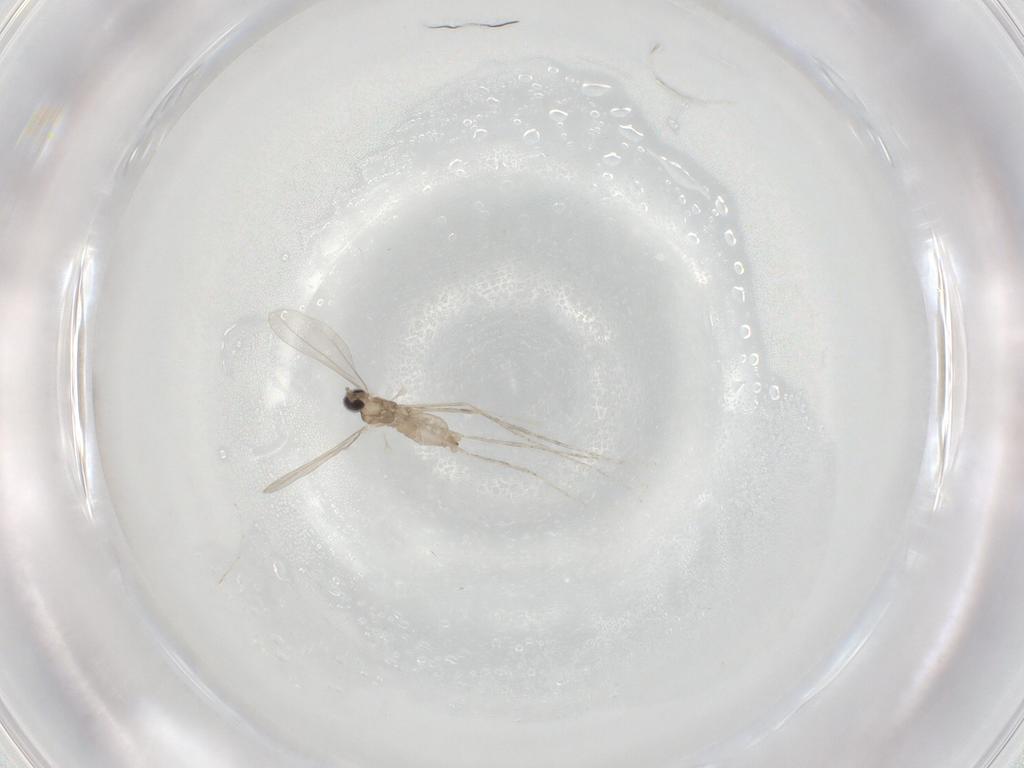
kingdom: Animalia
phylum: Arthropoda
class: Insecta
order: Diptera
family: Cecidomyiidae
